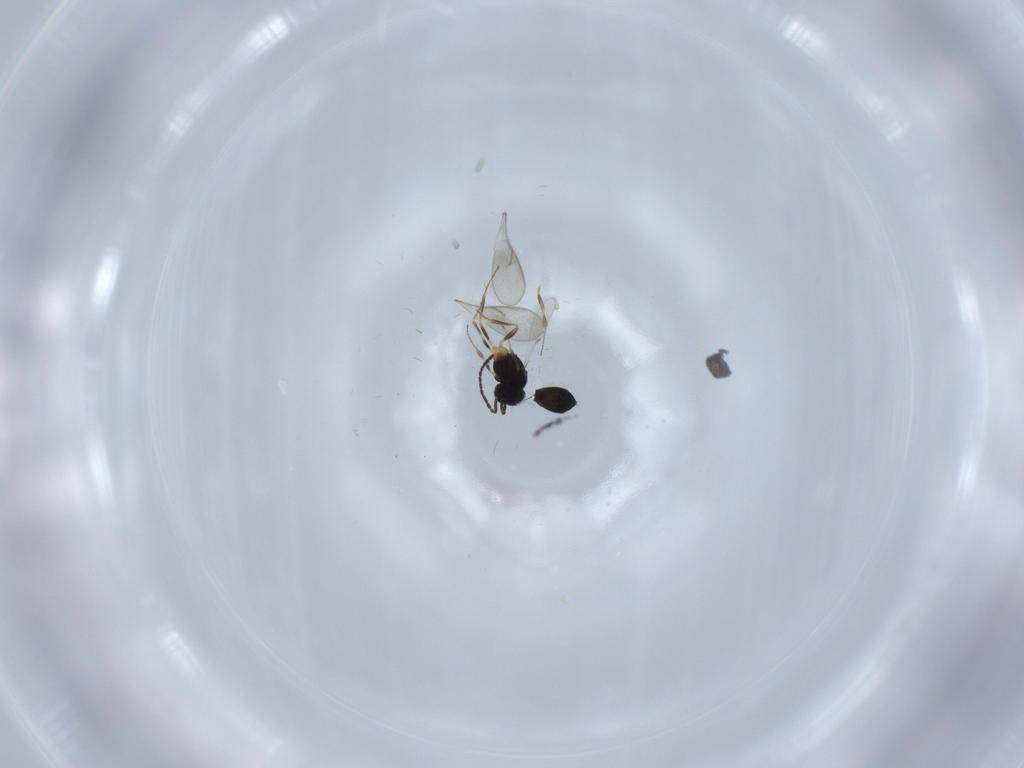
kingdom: Animalia
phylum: Arthropoda
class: Insecta
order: Hymenoptera
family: Scelionidae
